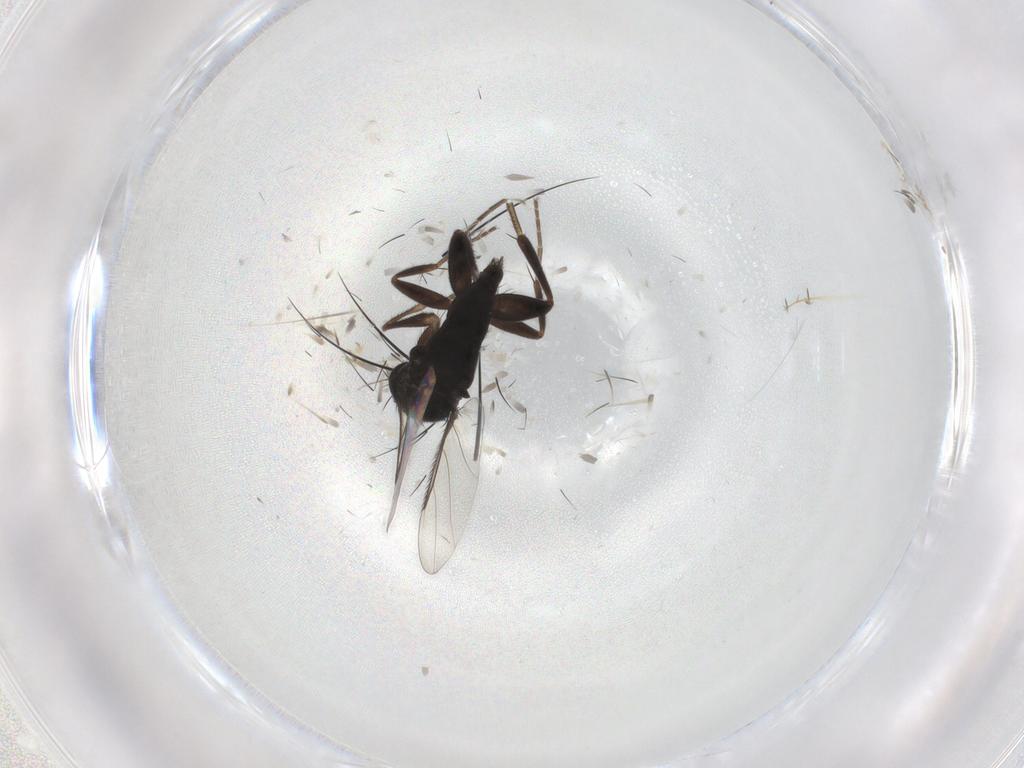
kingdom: Animalia
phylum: Arthropoda
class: Insecta
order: Diptera
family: Phoridae
